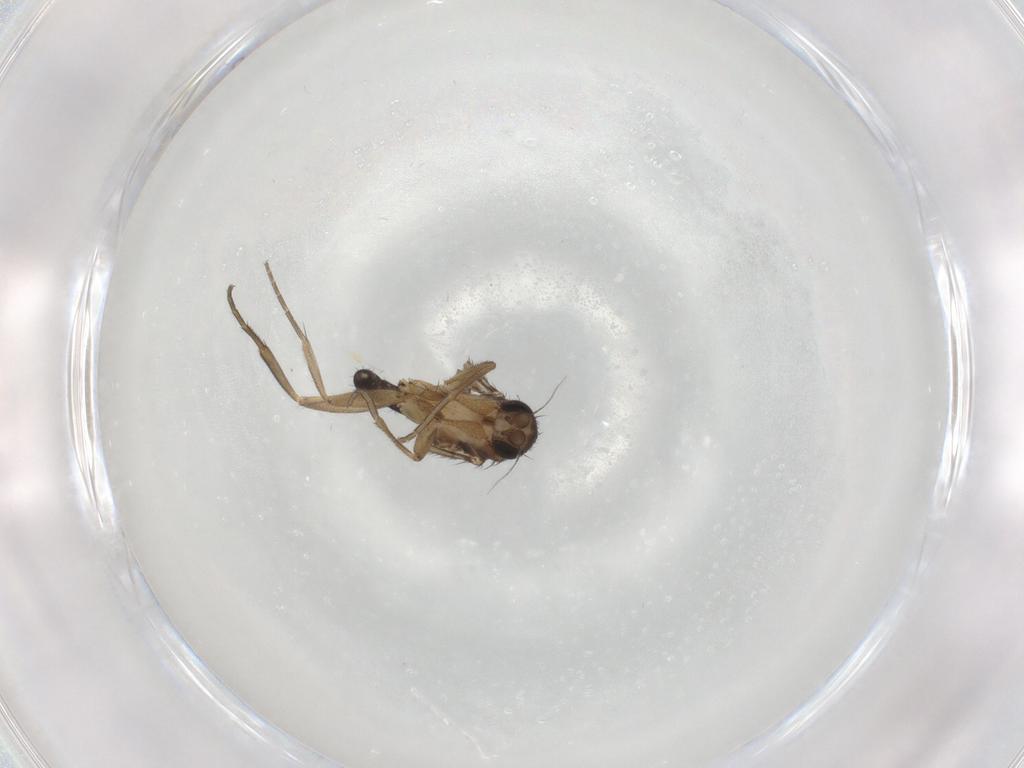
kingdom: Animalia
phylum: Arthropoda
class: Insecta
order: Diptera
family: Phoridae
